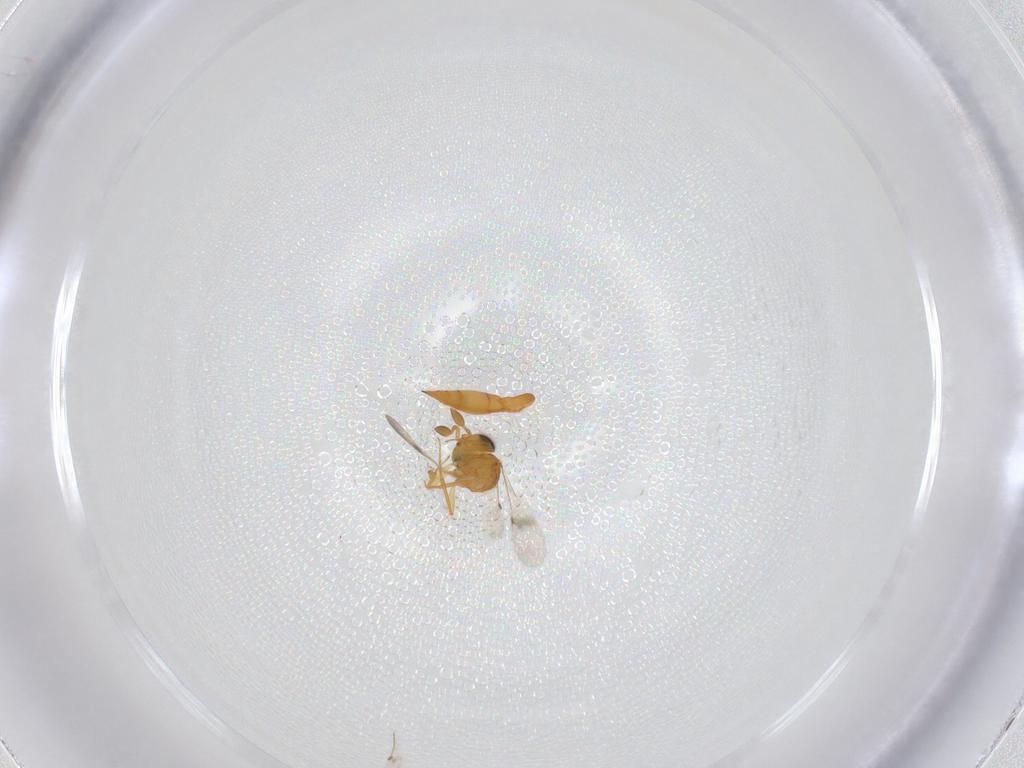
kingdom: Animalia
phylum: Arthropoda
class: Insecta
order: Hymenoptera
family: Scelionidae
